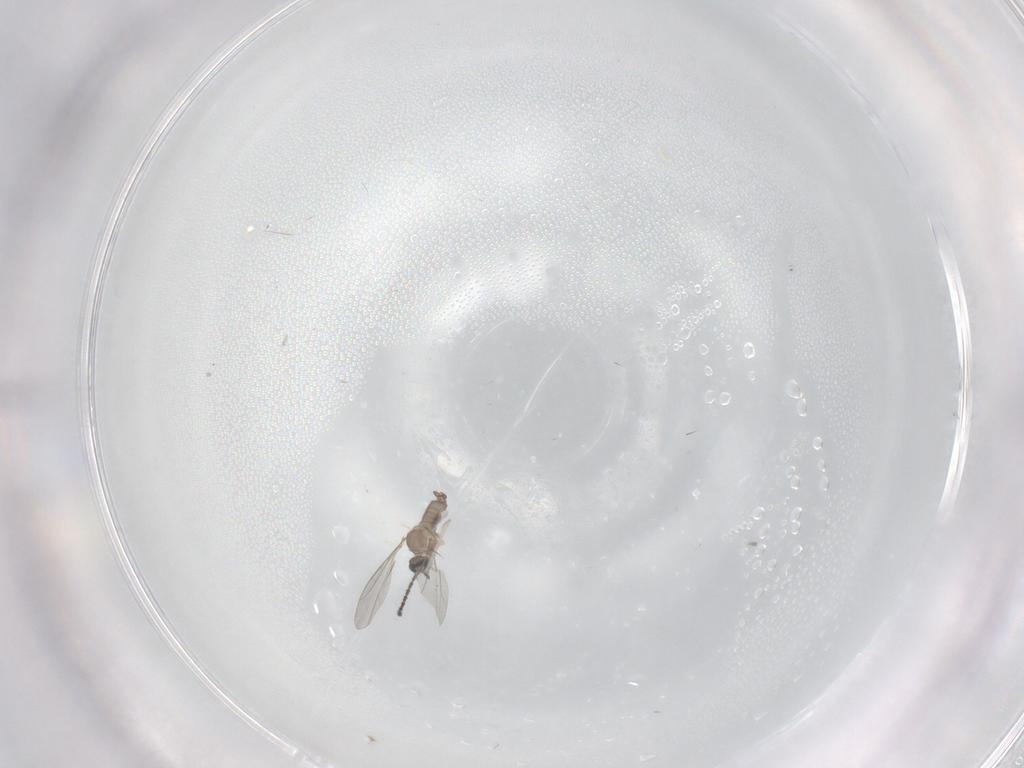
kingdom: Animalia
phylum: Arthropoda
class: Insecta
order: Diptera
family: Cecidomyiidae
